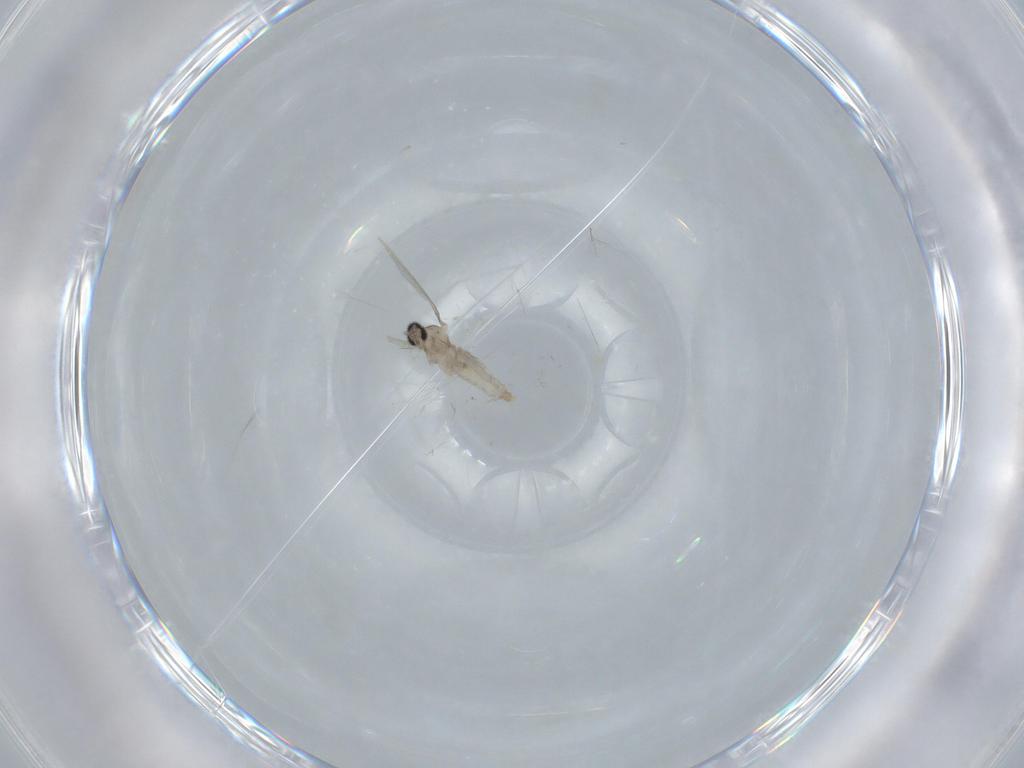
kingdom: Animalia
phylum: Arthropoda
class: Insecta
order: Diptera
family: Cecidomyiidae
